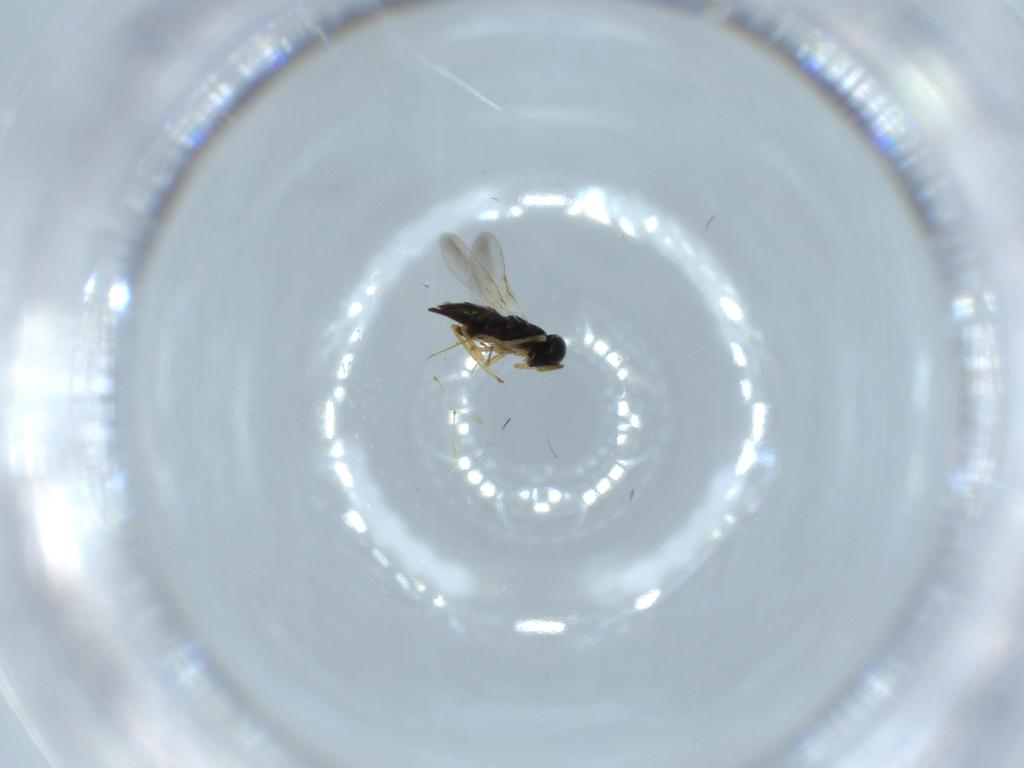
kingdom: Animalia
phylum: Arthropoda
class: Insecta
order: Hymenoptera
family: Encyrtidae
